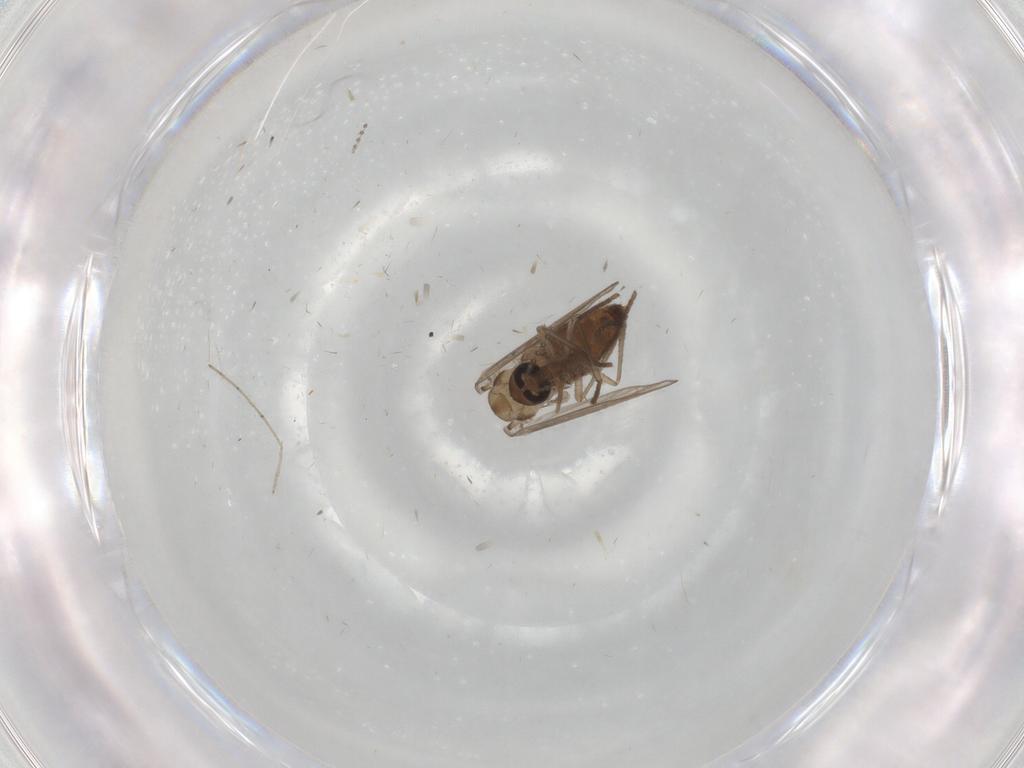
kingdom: Animalia
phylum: Arthropoda
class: Insecta
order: Diptera
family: Psychodidae
